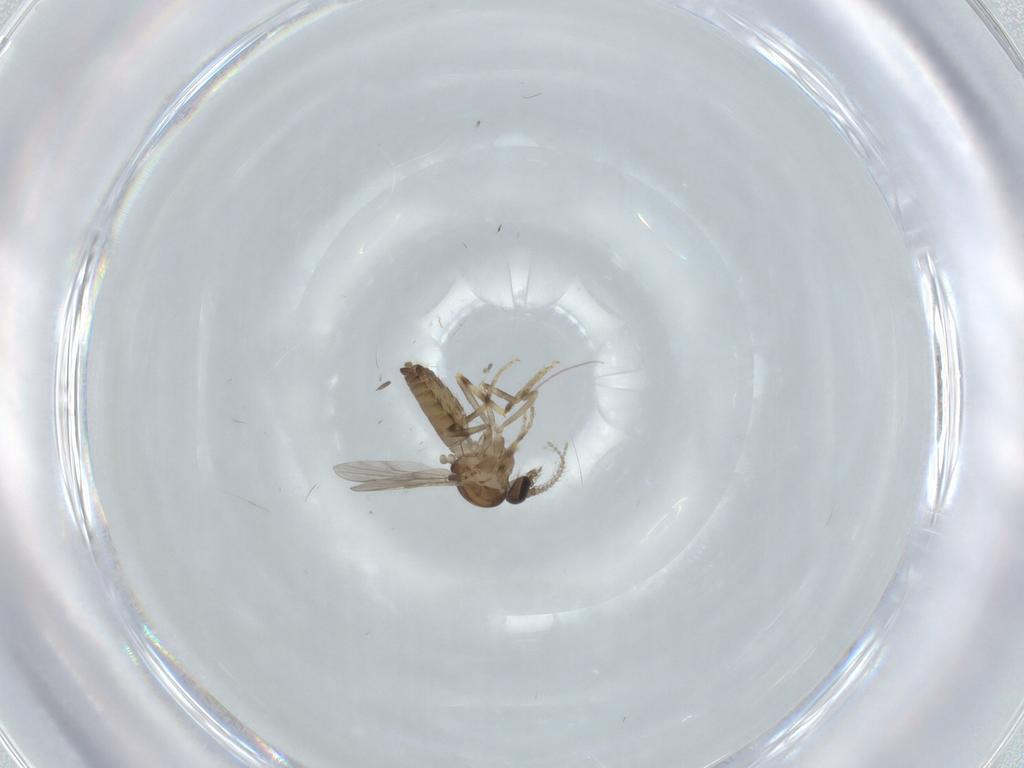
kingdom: Animalia
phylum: Arthropoda
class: Insecta
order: Diptera
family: Ceratopogonidae
